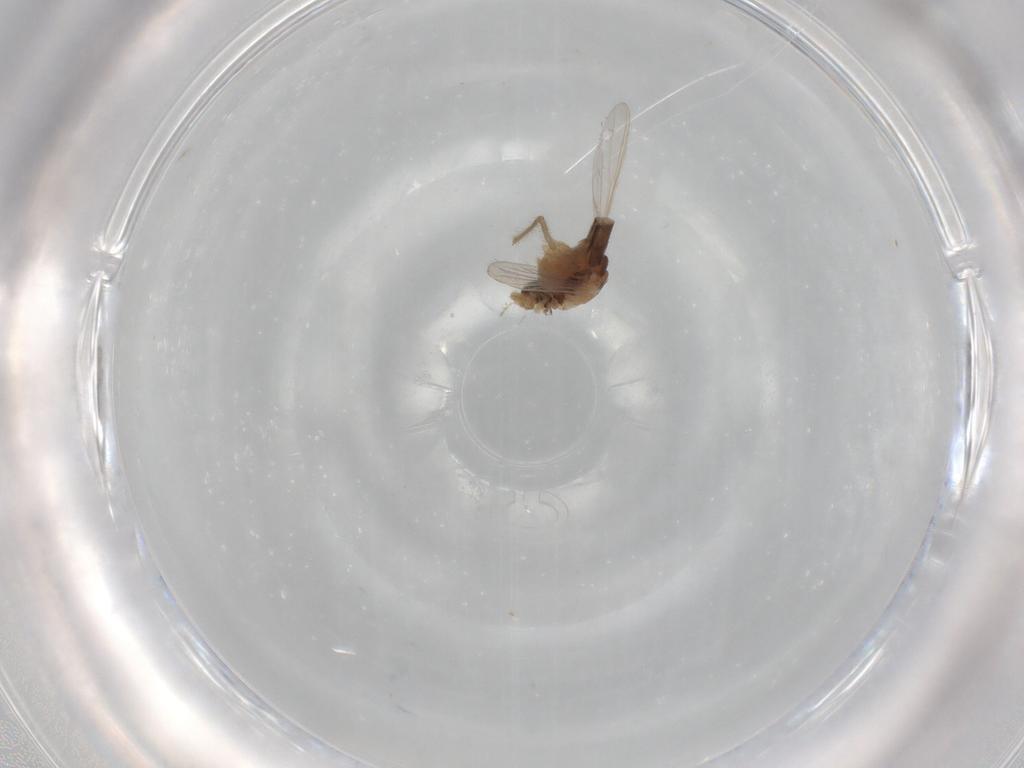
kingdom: Animalia
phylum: Arthropoda
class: Insecta
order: Diptera
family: Chironomidae
